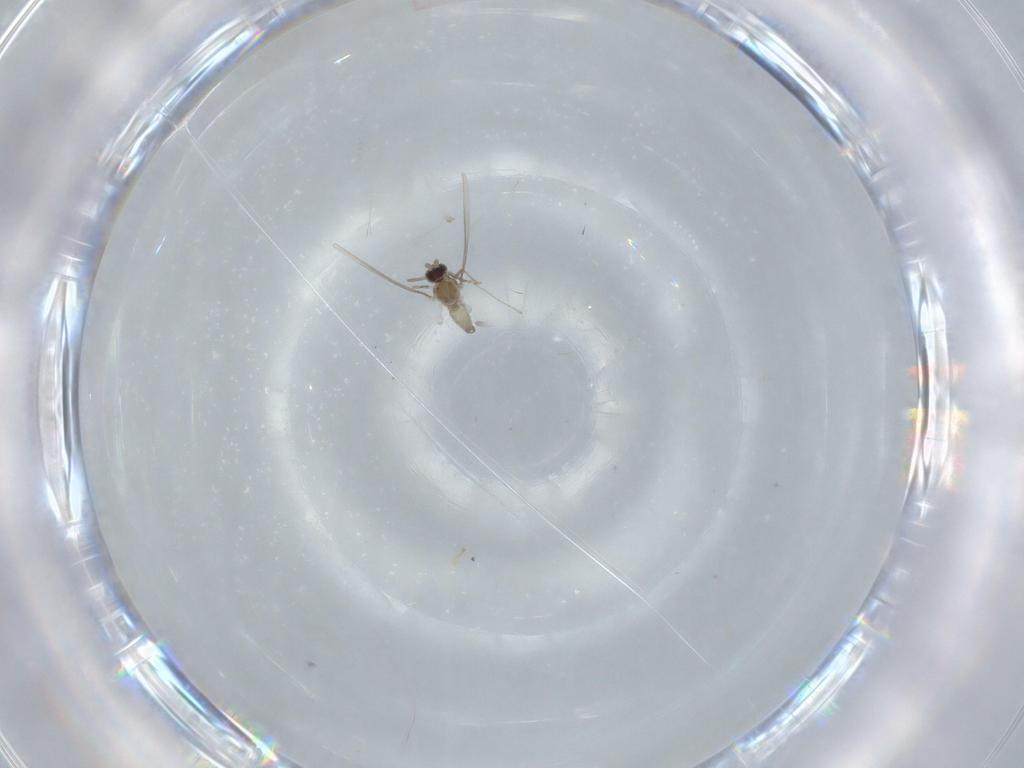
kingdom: Animalia
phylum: Arthropoda
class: Insecta
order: Diptera
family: Cecidomyiidae
